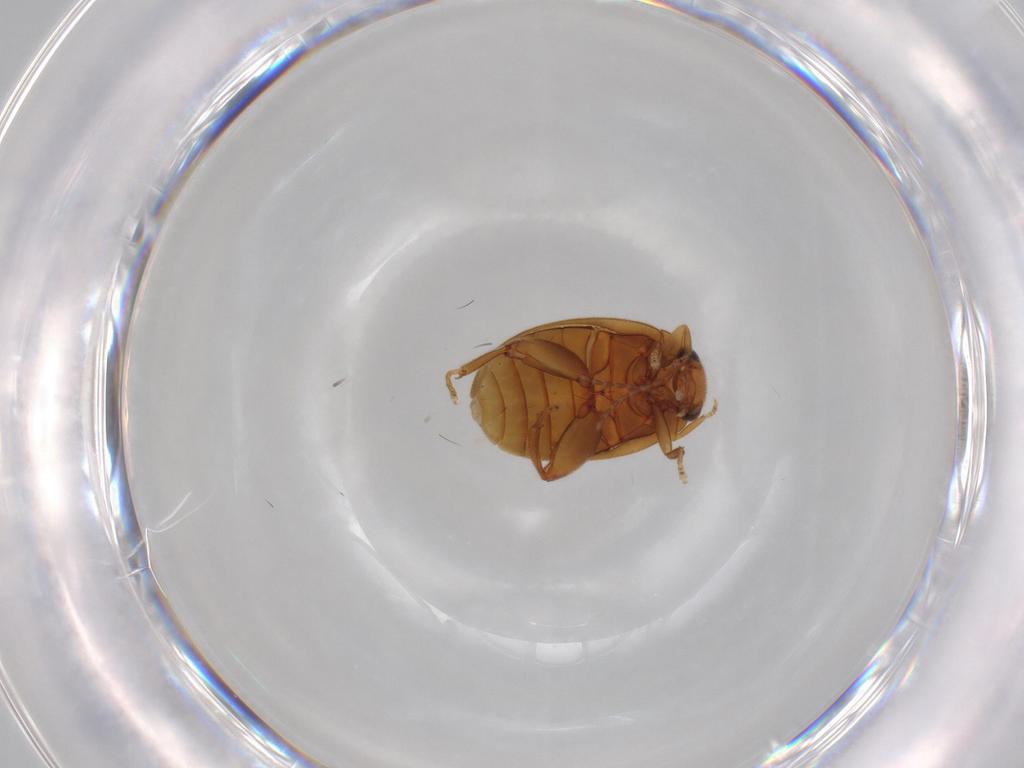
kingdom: Animalia
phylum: Arthropoda
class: Insecta
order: Coleoptera
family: Scirtidae
